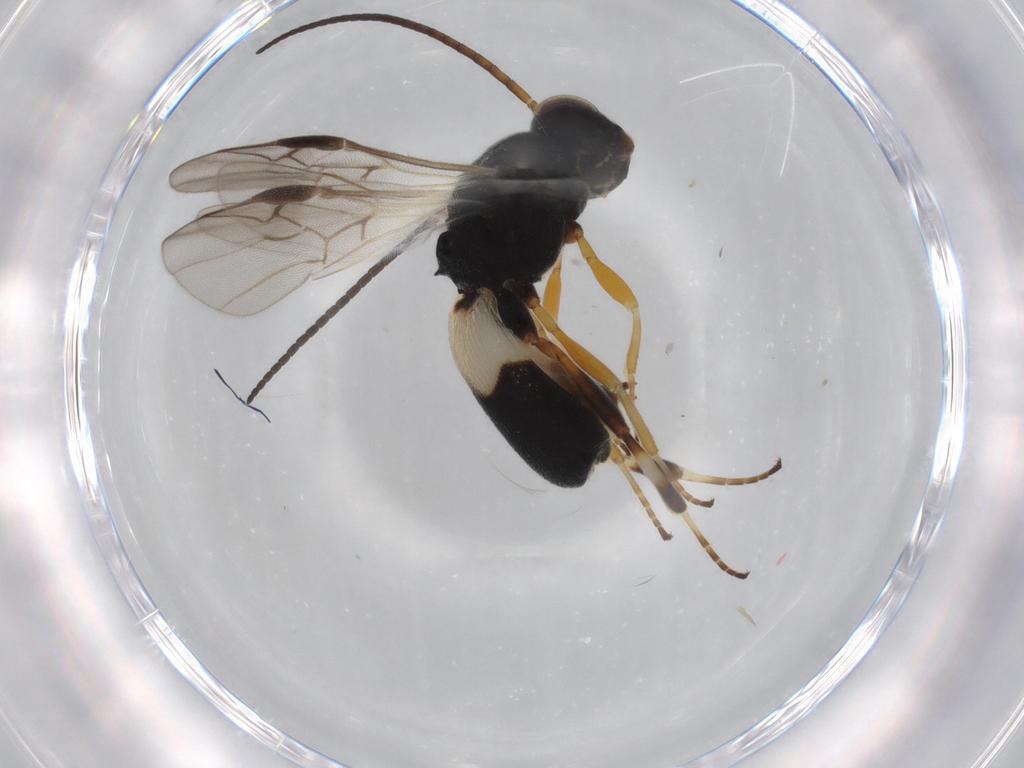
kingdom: Animalia
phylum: Arthropoda
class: Insecta
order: Hymenoptera
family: Braconidae
